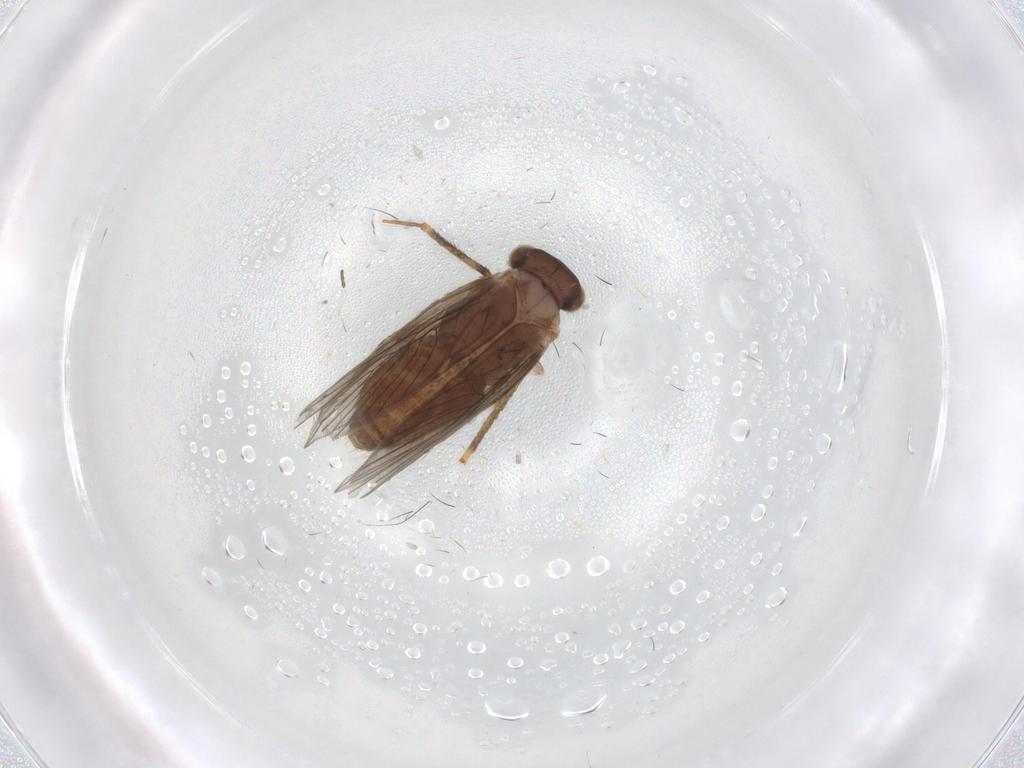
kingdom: Animalia
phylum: Arthropoda
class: Insecta
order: Psocodea
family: Lepidopsocidae
